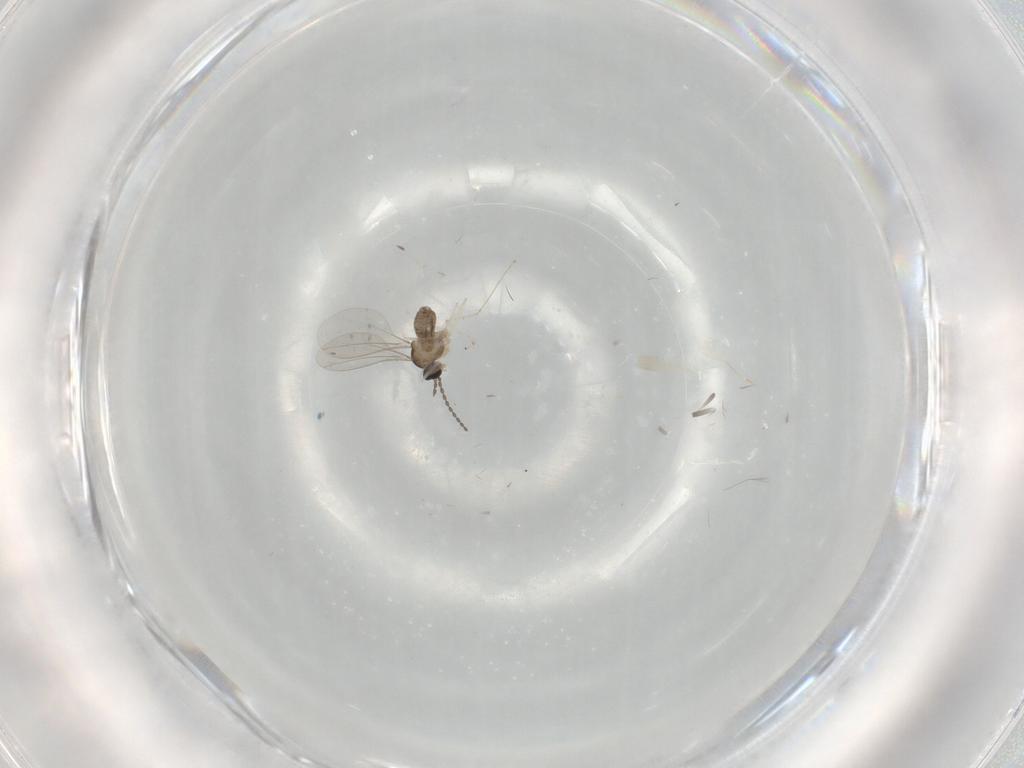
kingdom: Animalia
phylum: Arthropoda
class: Insecta
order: Diptera
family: Cecidomyiidae
